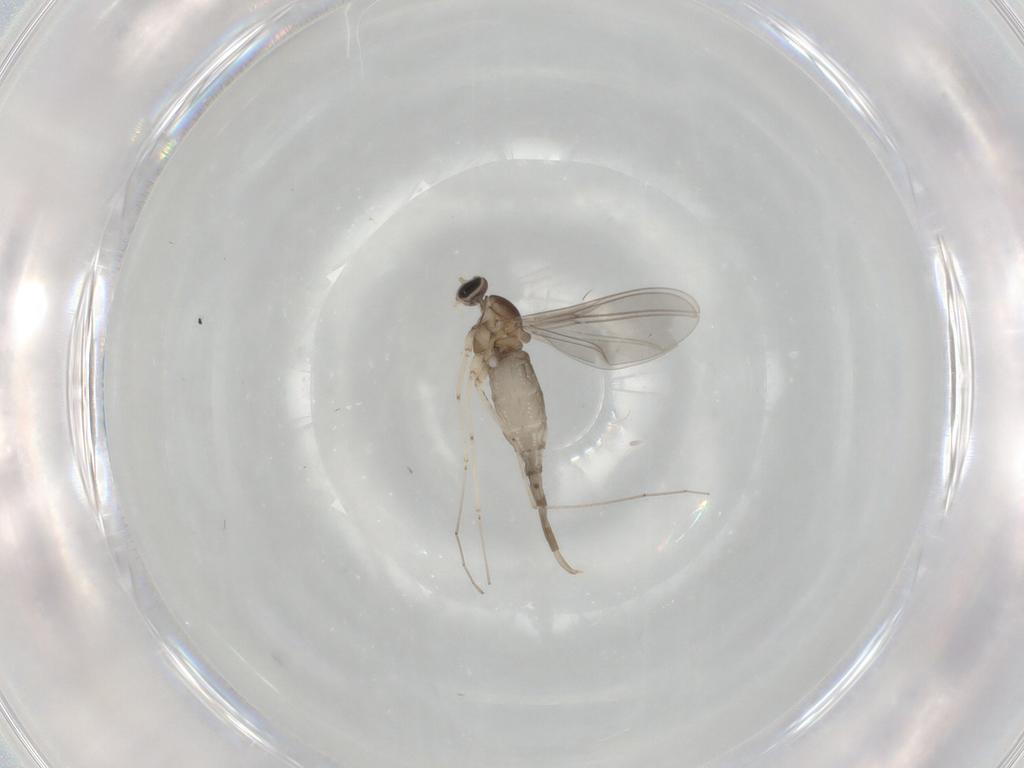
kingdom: Animalia
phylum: Arthropoda
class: Insecta
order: Diptera
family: Cecidomyiidae
